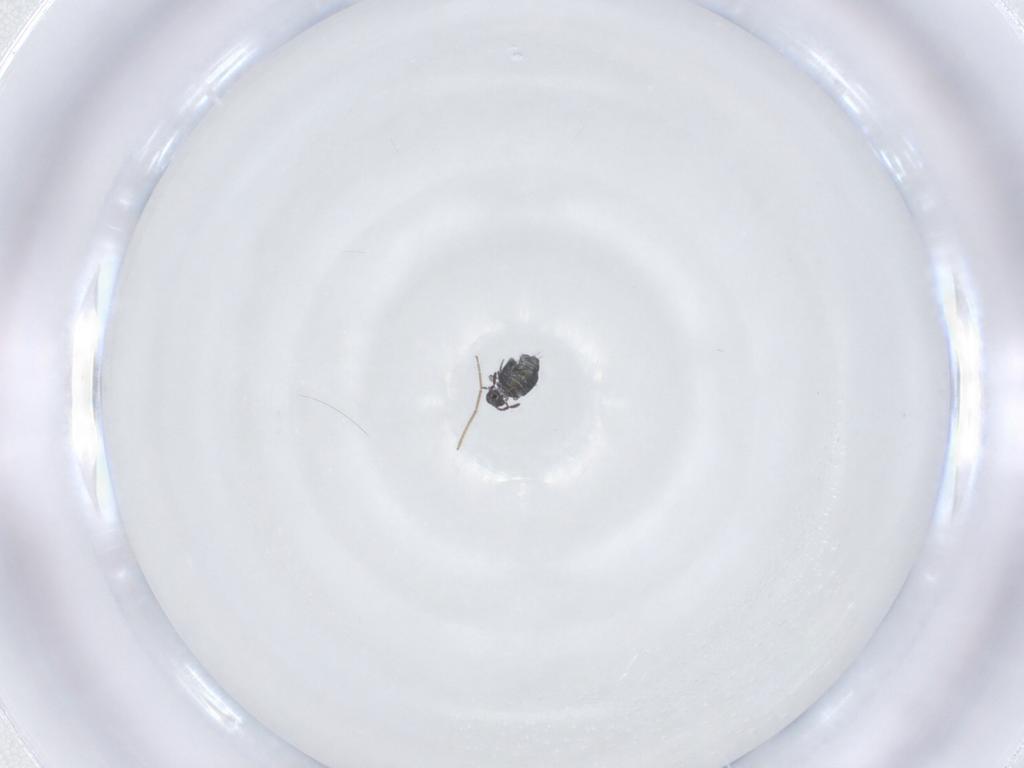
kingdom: Animalia
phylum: Arthropoda
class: Collembola
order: Symphypleona
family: Katiannidae
